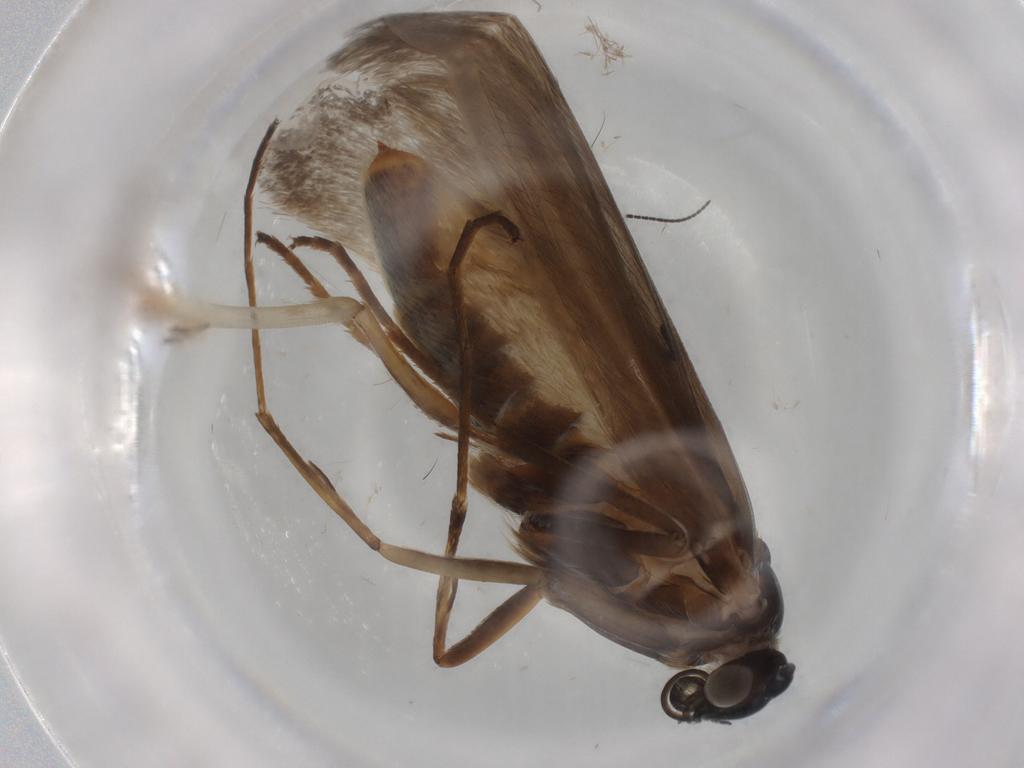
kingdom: Animalia
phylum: Arthropoda
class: Insecta
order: Lepidoptera
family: Adelidae
